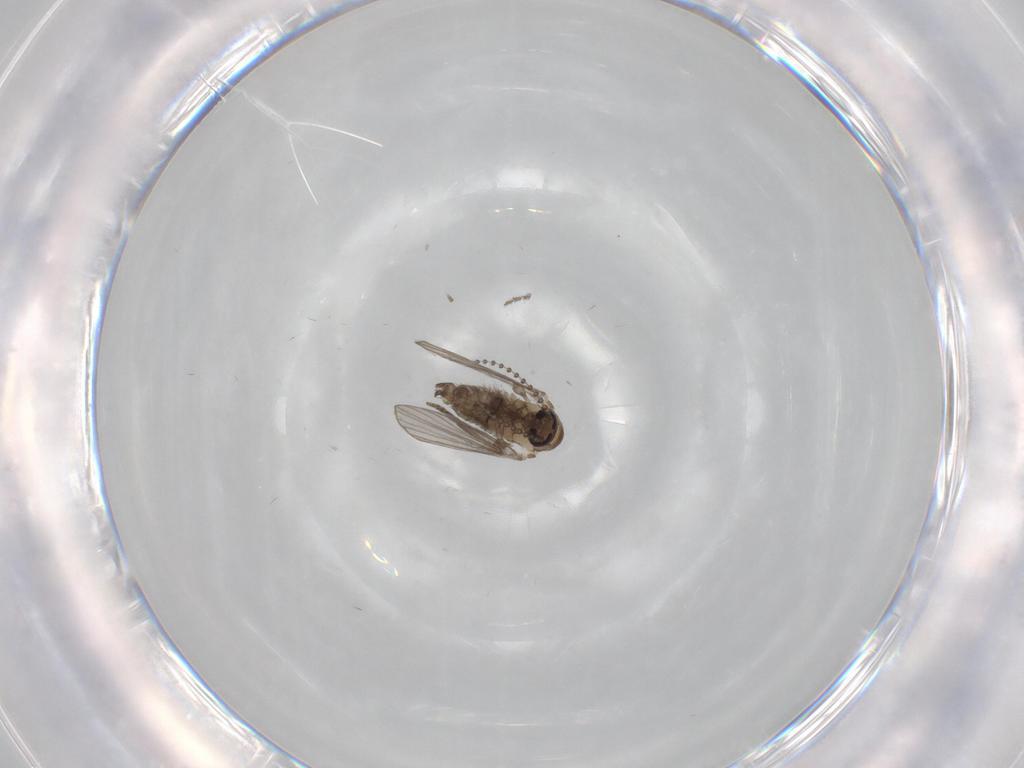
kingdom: Animalia
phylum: Arthropoda
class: Insecta
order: Diptera
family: Psychodidae
